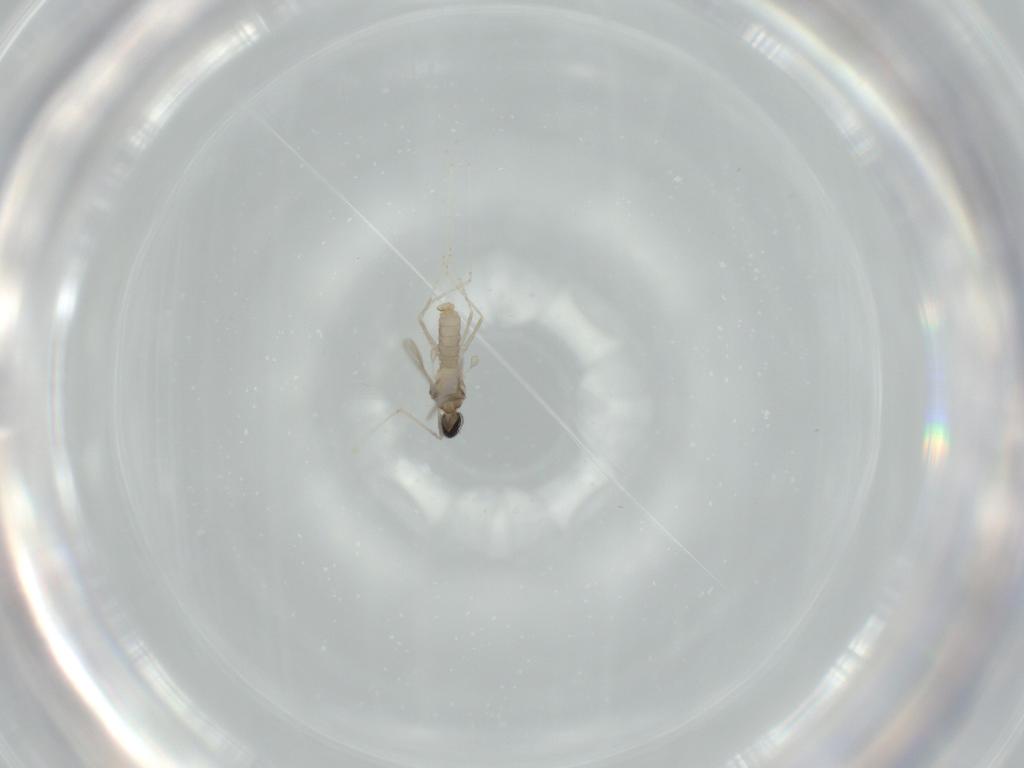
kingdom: Animalia
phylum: Arthropoda
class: Insecta
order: Diptera
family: Cecidomyiidae
